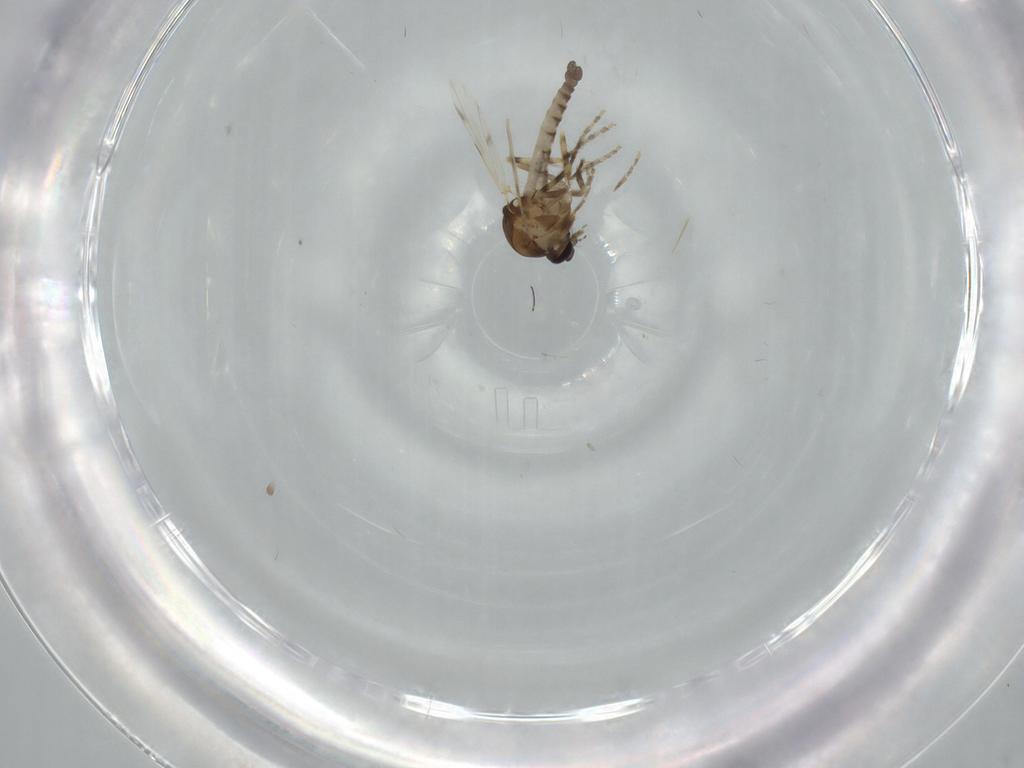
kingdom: Animalia
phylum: Arthropoda
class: Insecta
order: Diptera
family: Ceratopogonidae
